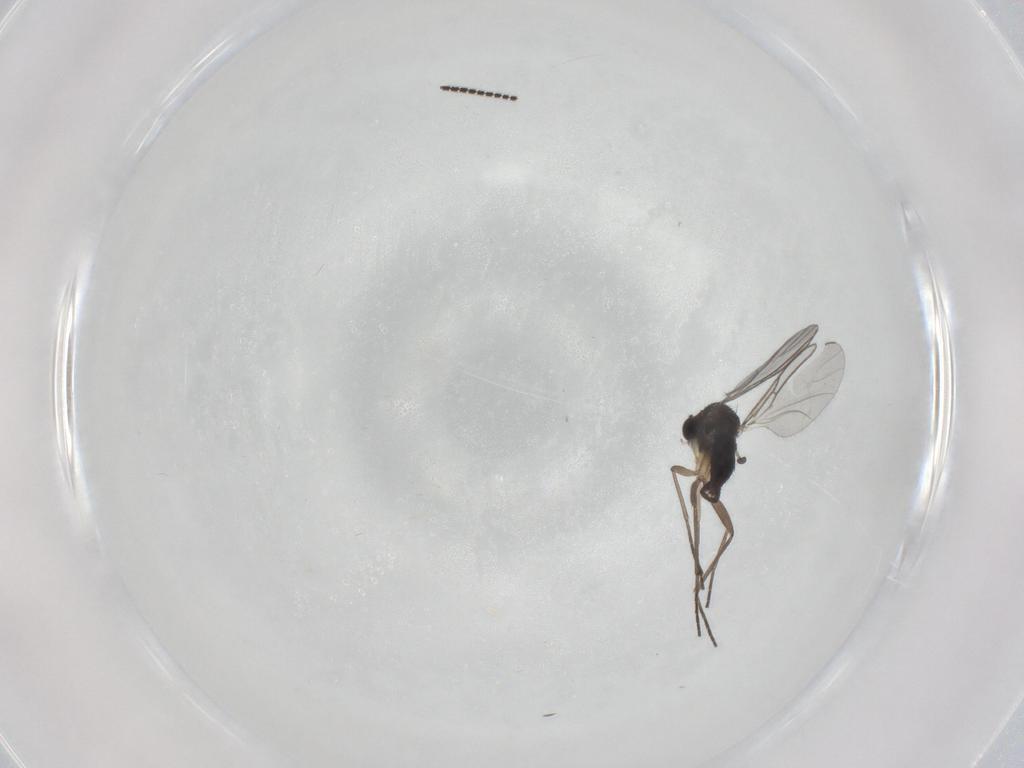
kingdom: Animalia
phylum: Arthropoda
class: Insecta
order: Diptera
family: Sciaridae
